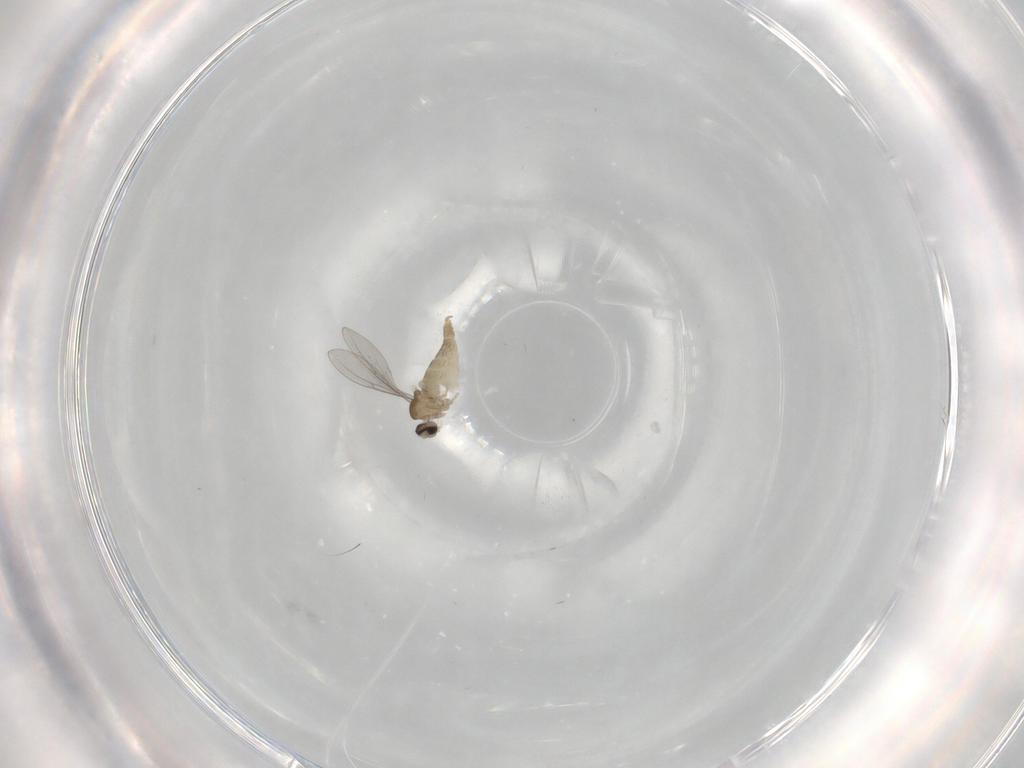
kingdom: Animalia
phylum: Arthropoda
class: Insecta
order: Diptera
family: Cecidomyiidae
